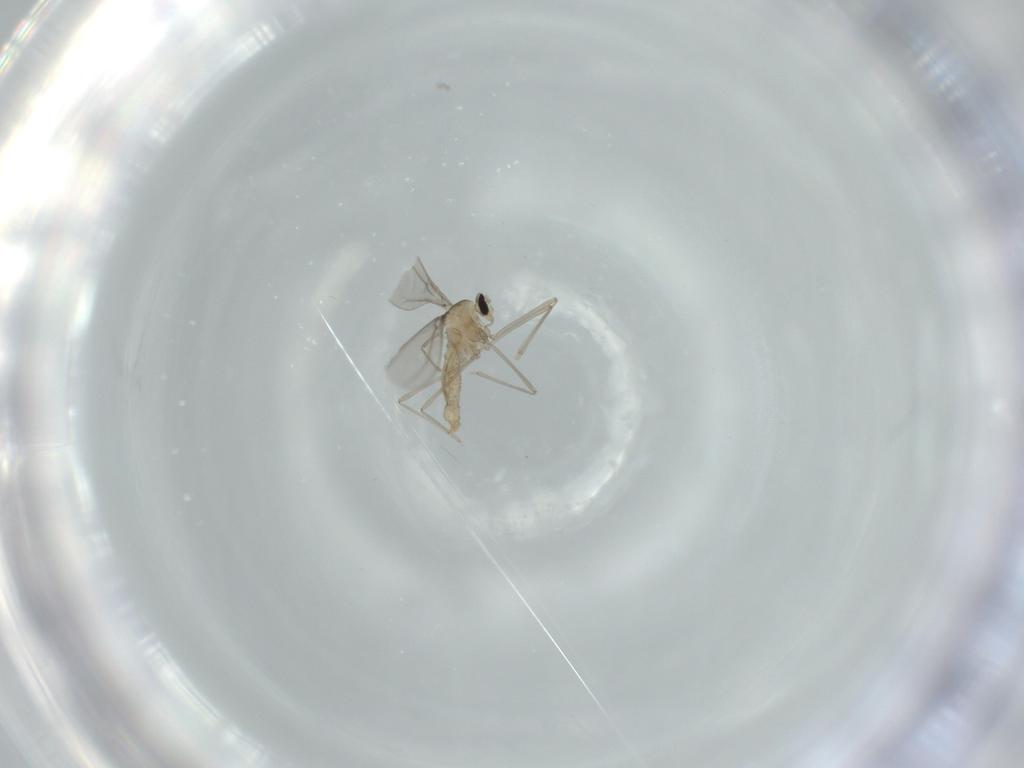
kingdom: Animalia
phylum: Arthropoda
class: Insecta
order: Diptera
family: Cecidomyiidae
